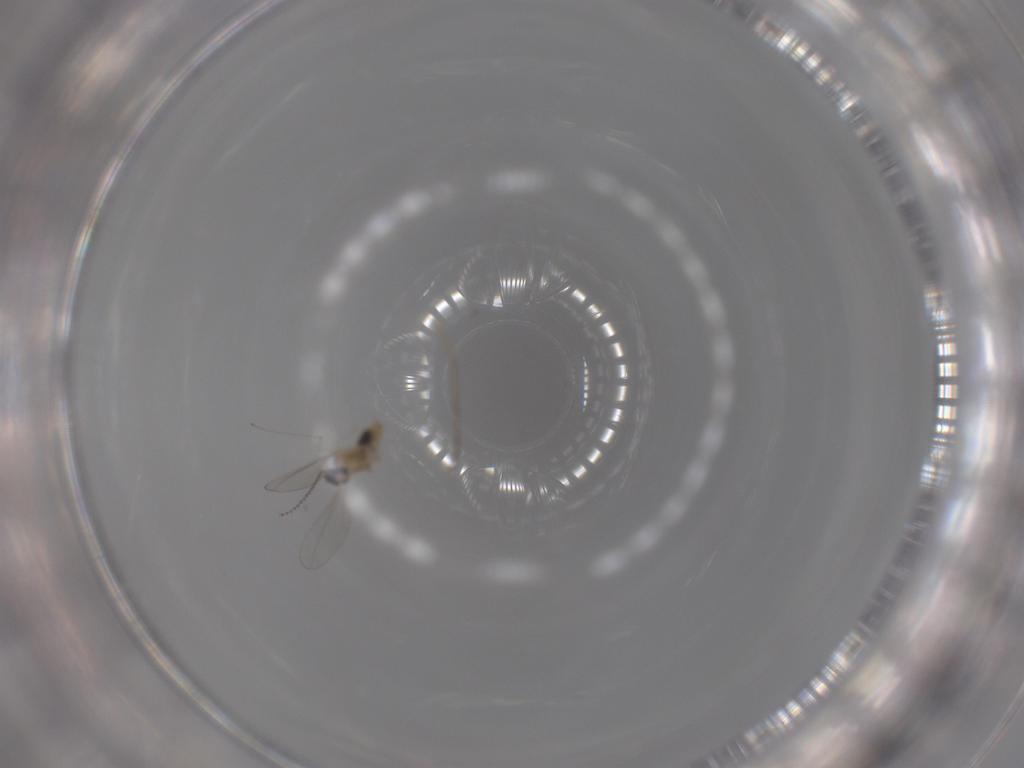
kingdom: Animalia
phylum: Arthropoda
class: Insecta
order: Diptera
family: Cecidomyiidae
